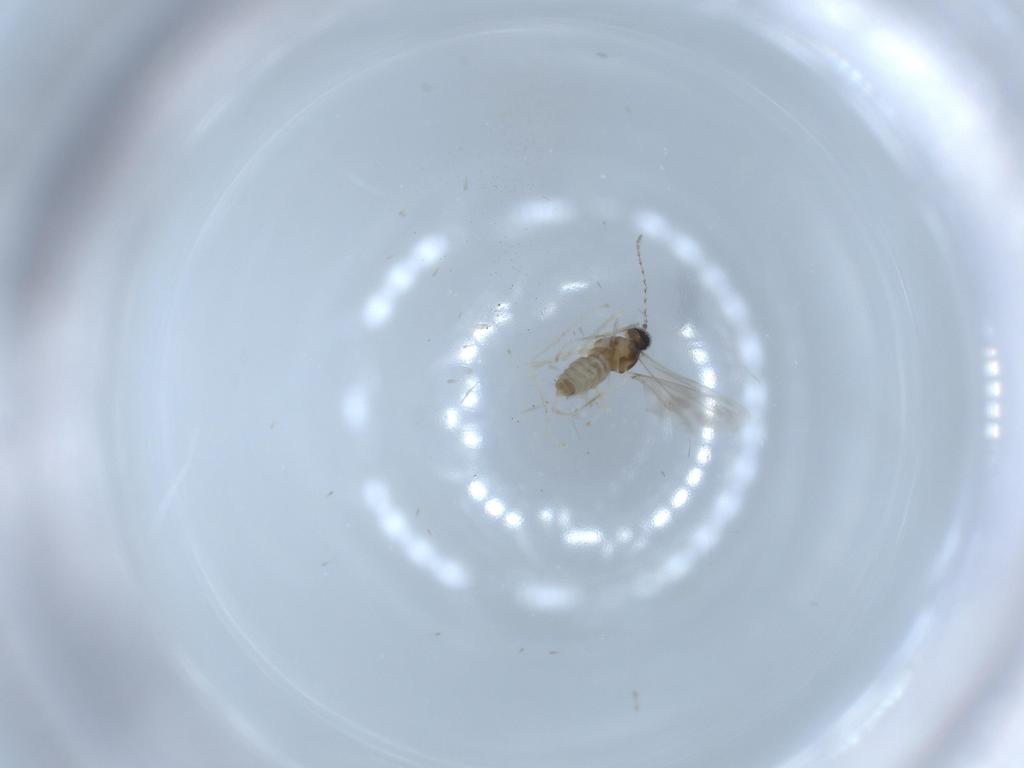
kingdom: Animalia
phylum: Arthropoda
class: Insecta
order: Diptera
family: Cecidomyiidae
